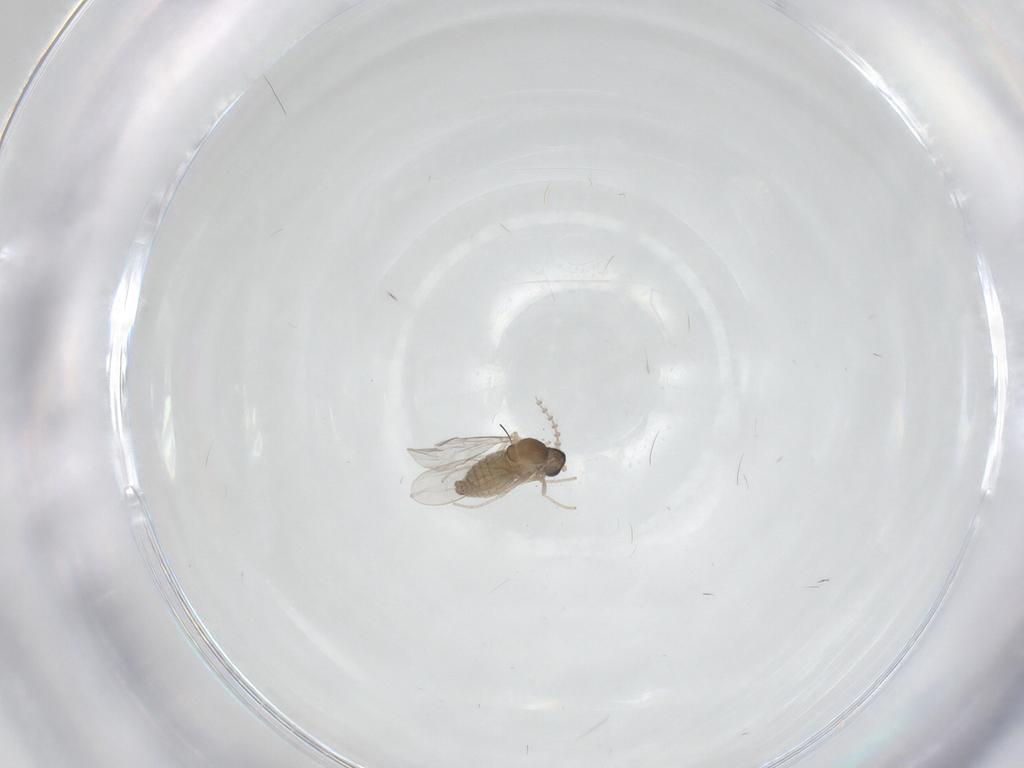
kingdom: Animalia
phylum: Arthropoda
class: Insecta
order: Diptera
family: Cecidomyiidae
